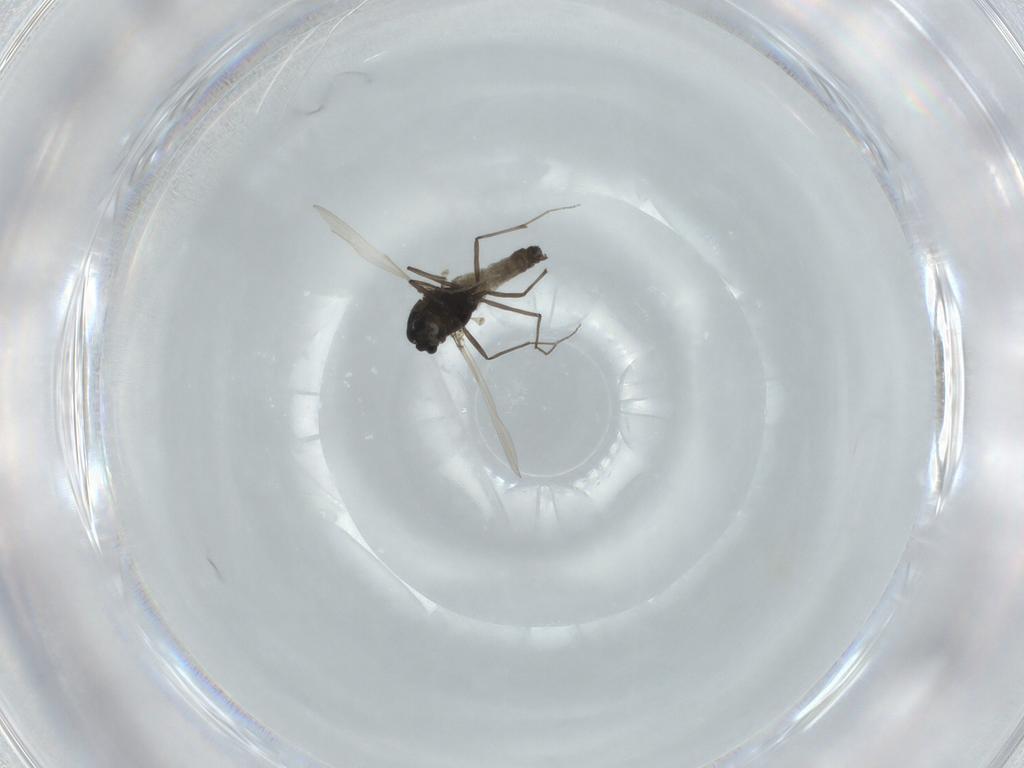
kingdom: Animalia
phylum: Arthropoda
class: Insecta
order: Diptera
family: Chironomidae
